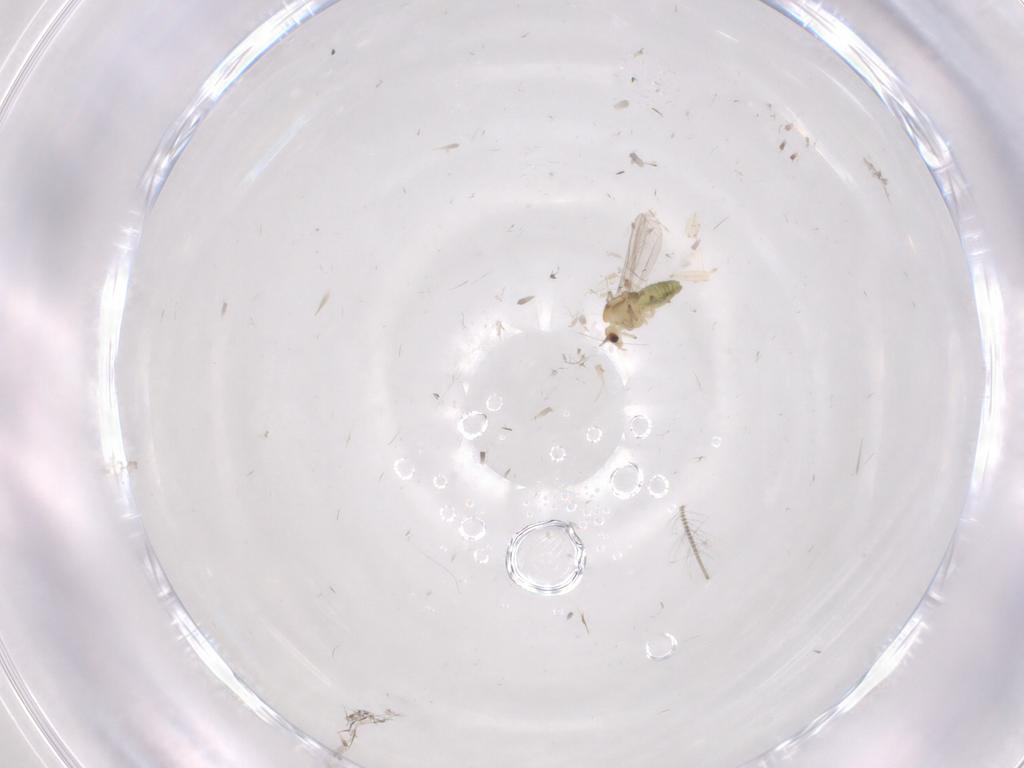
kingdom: Animalia
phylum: Arthropoda
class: Insecta
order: Diptera
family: Chironomidae
